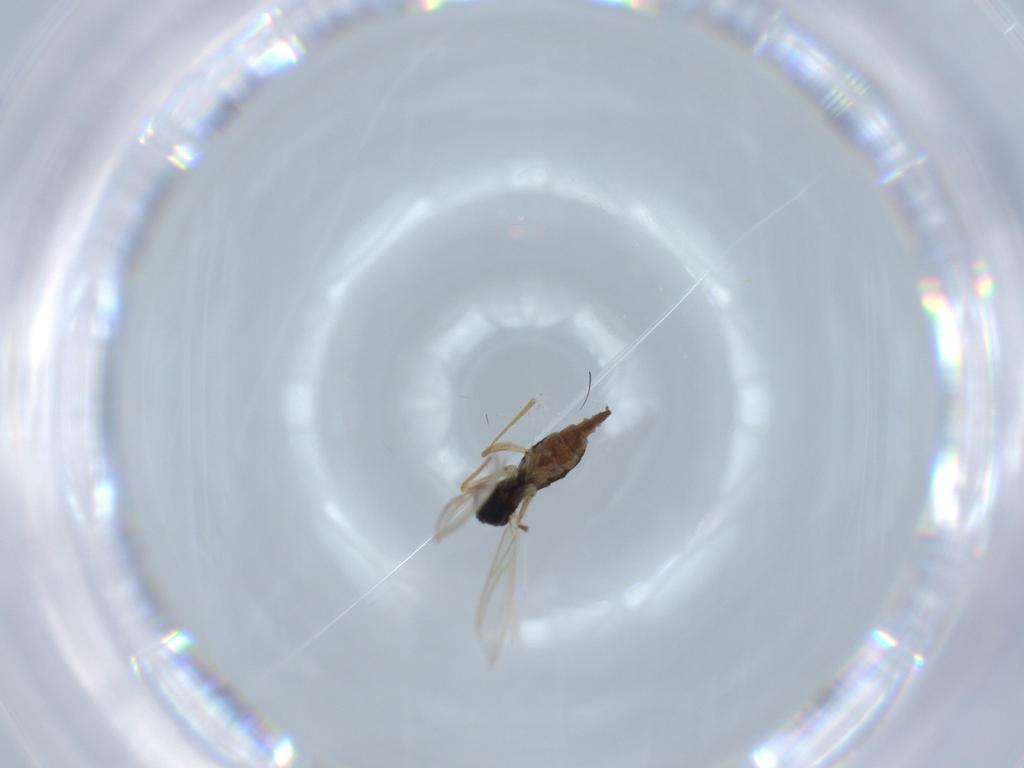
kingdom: Animalia
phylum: Arthropoda
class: Insecta
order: Diptera
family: Sciaridae
